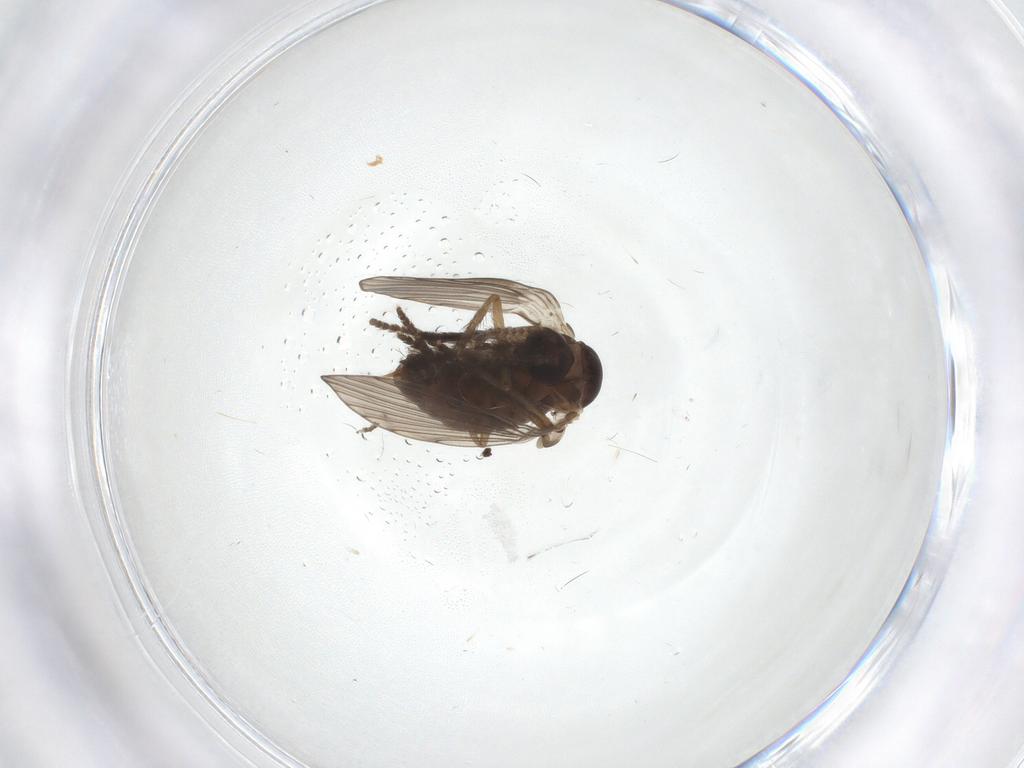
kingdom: Animalia
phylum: Arthropoda
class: Insecta
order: Diptera
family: Psychodidae
